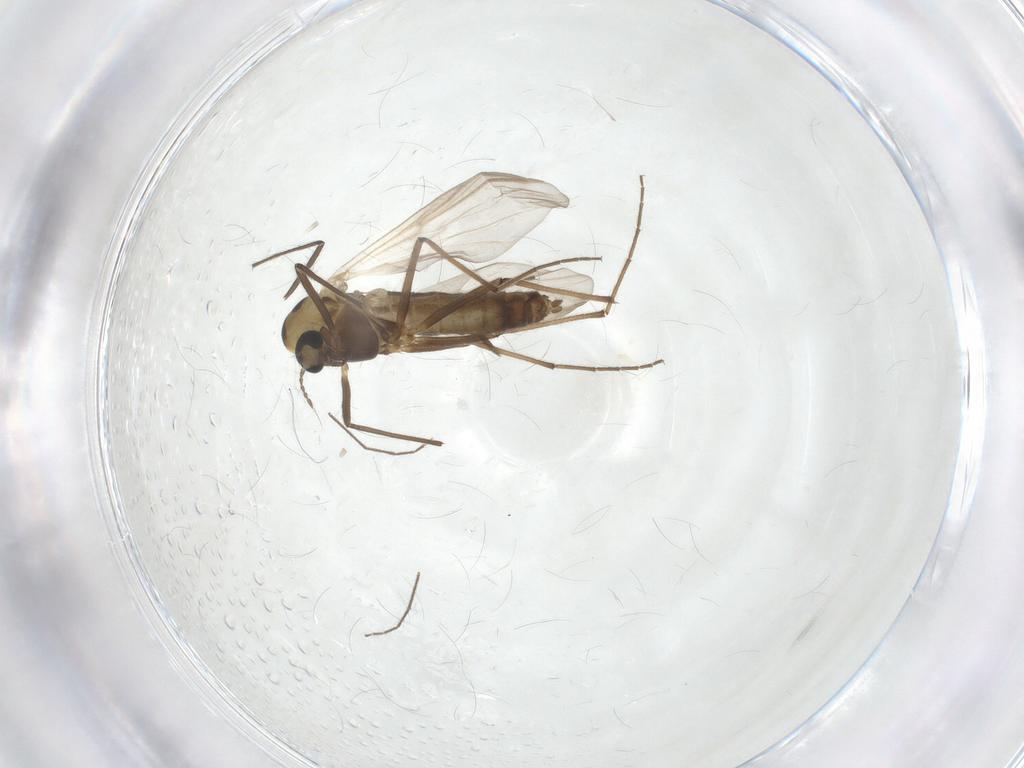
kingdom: Animalia
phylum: Arthropoda
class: Insecta
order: Diptera
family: Chironomidae
